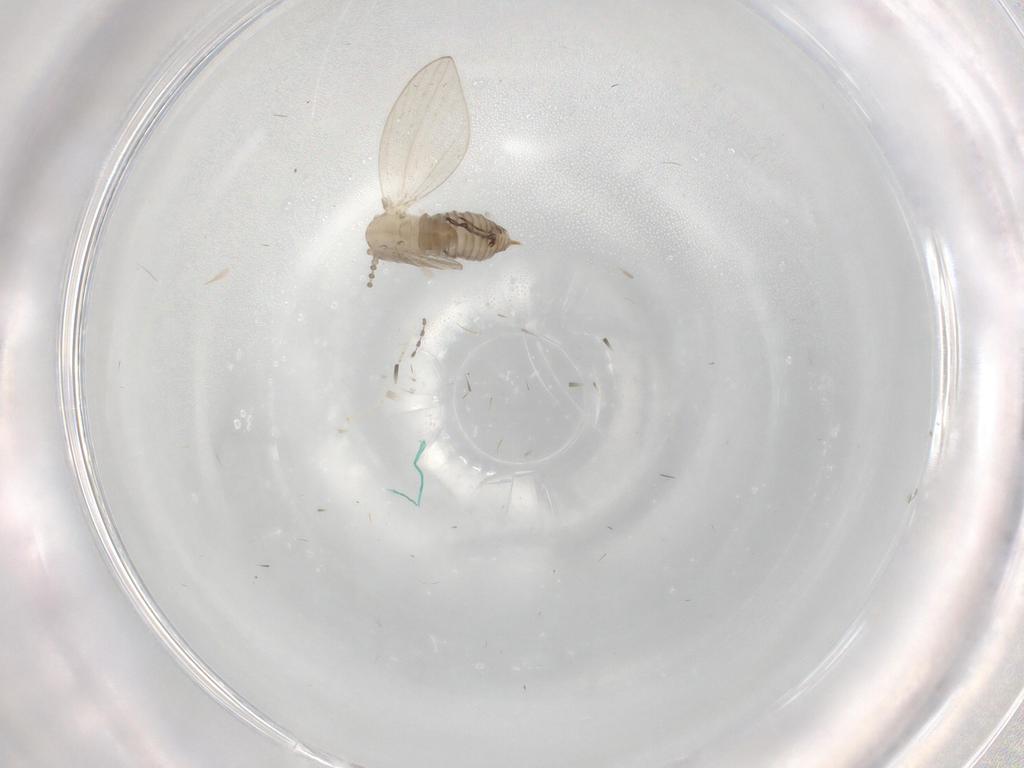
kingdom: Animalia
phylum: Arthropoda
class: Insecta
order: Diptera
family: Psychodidae
